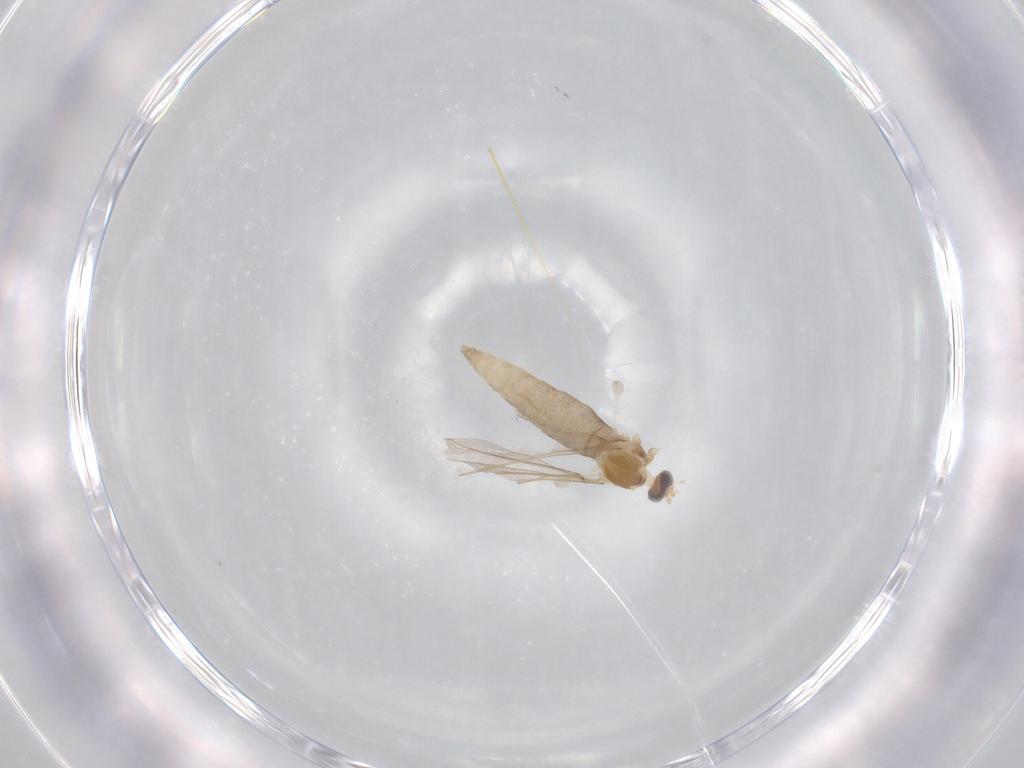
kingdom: Animalia
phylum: Arthropoda
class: Insecta
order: Diptera
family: Cecidomyiidae
